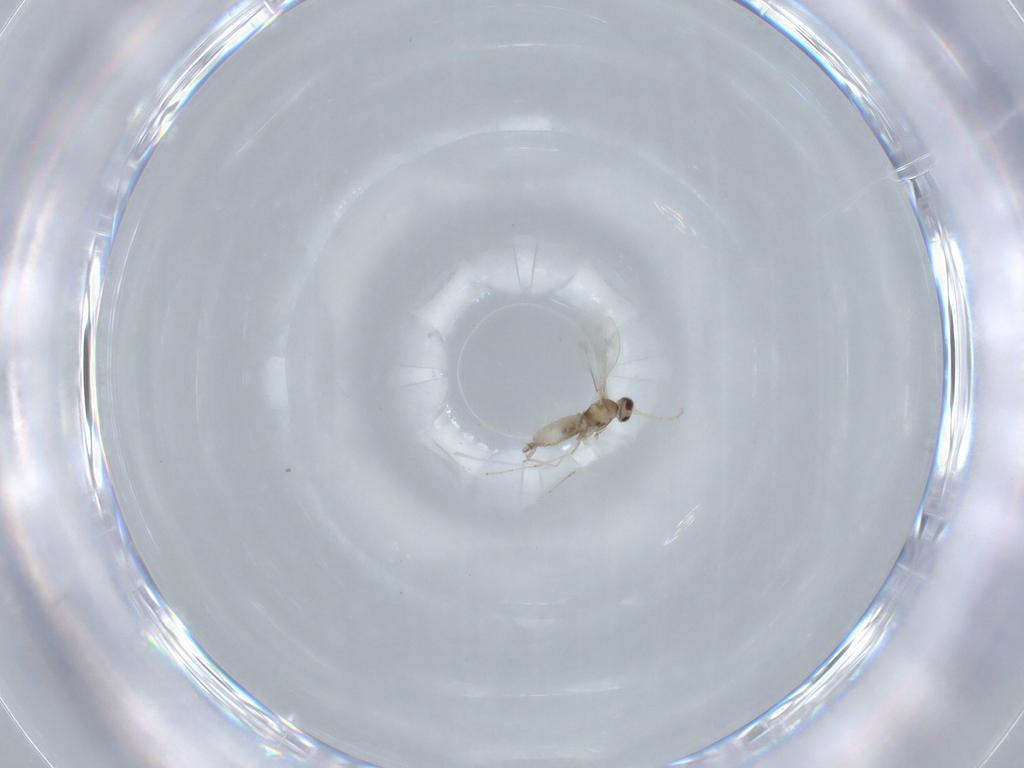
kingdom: Animalia
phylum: Arthropoda
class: Insecta
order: Diptera
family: Cecidomyiidae
